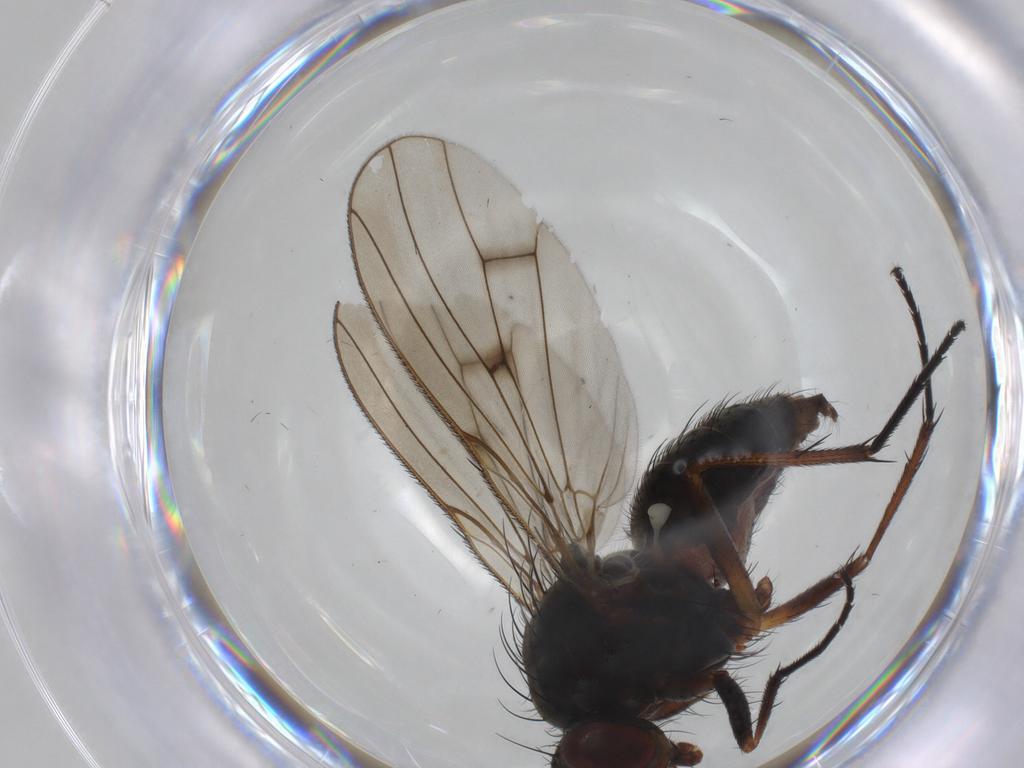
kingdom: Animalia
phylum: Arthropoda
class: Insecta
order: Diptera
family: Anthomyiidae
